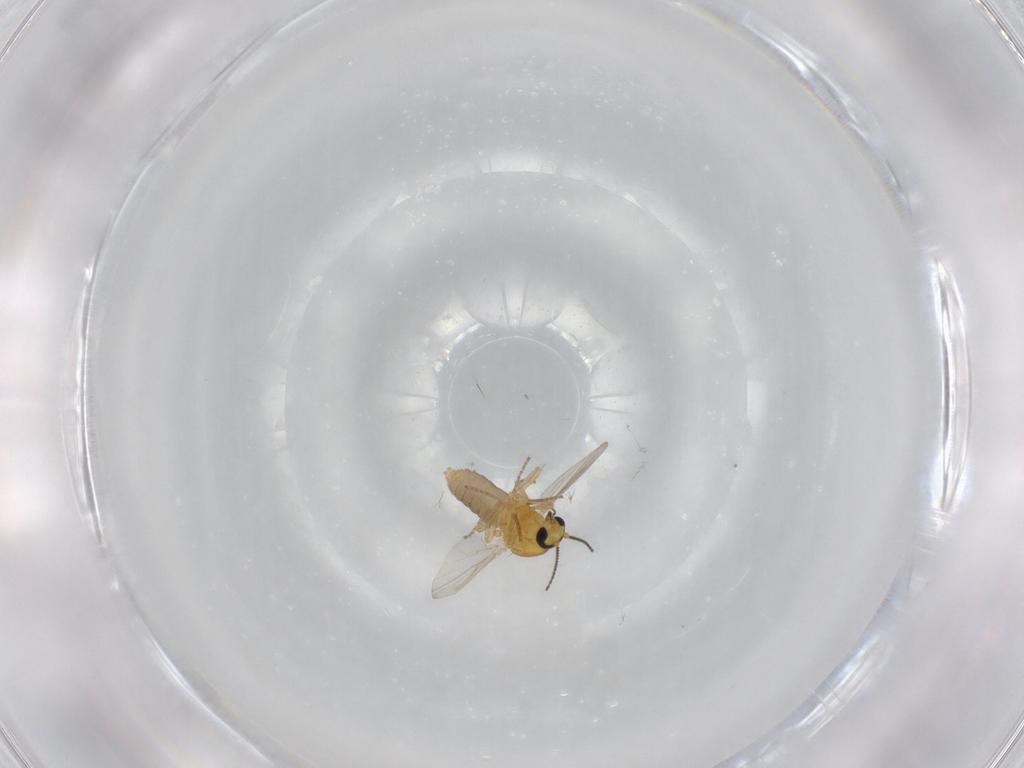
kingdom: Animalia
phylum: Arthropoda
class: Insecta
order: Diptera
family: Ceratopogonidae
